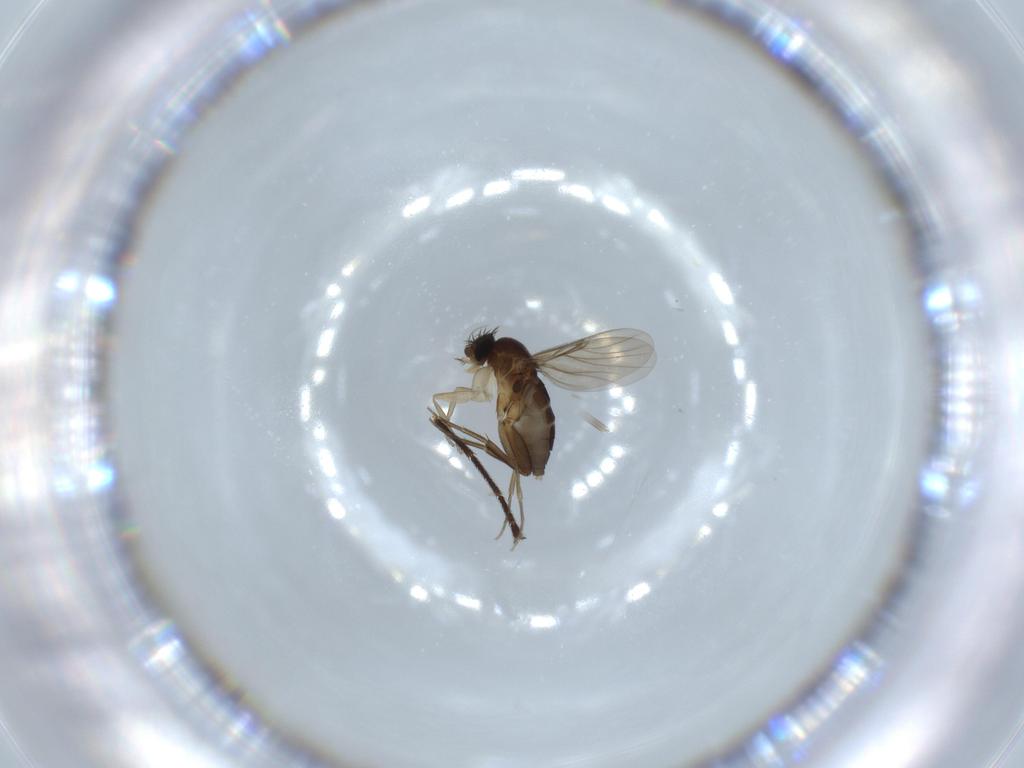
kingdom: Animalia
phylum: Arthropoda
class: Insecta
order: Diptera
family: Phoridae
